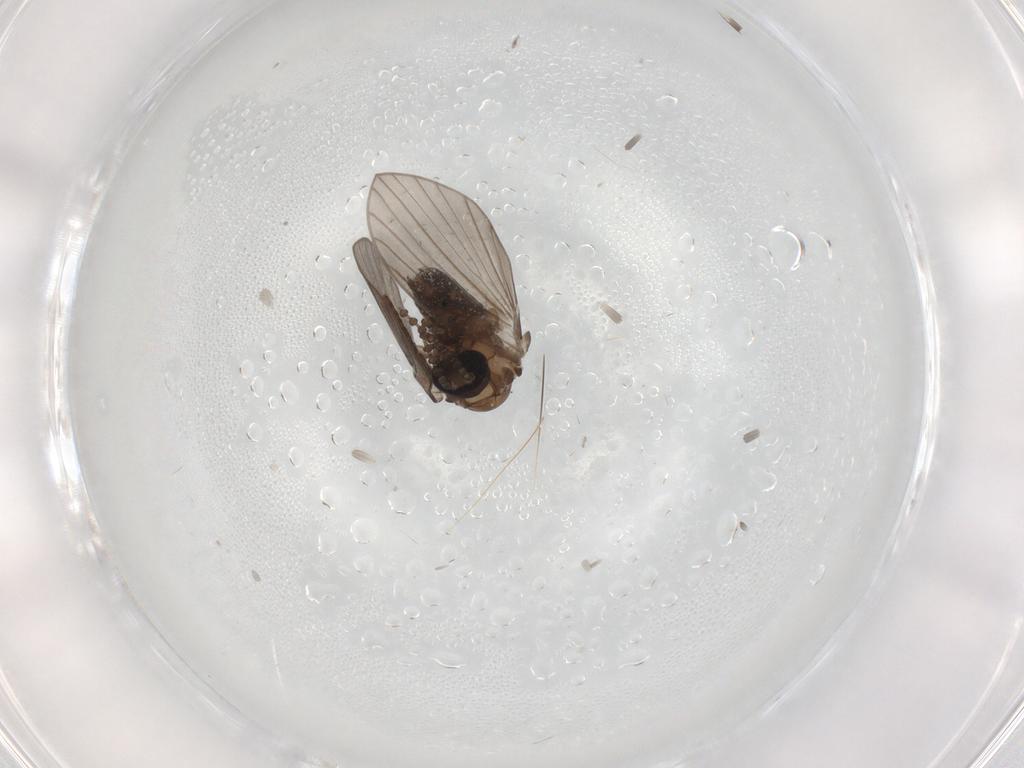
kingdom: Animalia
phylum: Arthropoda
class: Insecta
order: Diptera
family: Psychodidae
